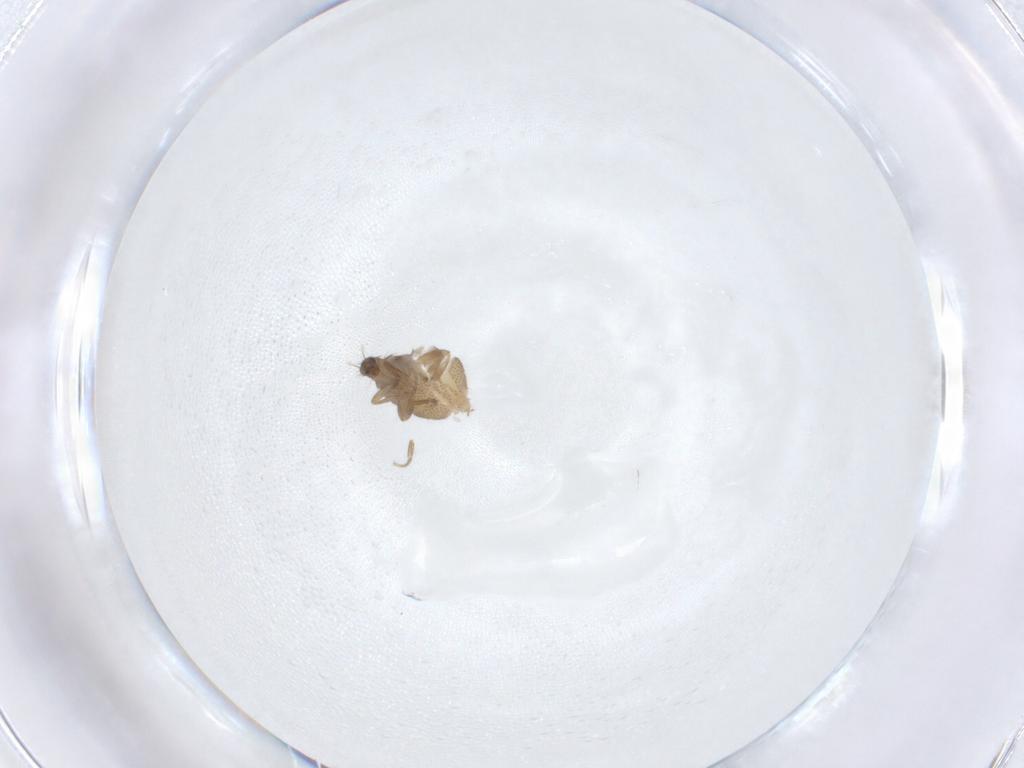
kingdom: Animalia
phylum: Arthropoda
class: Insecta
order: Diptera
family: Phoridae
